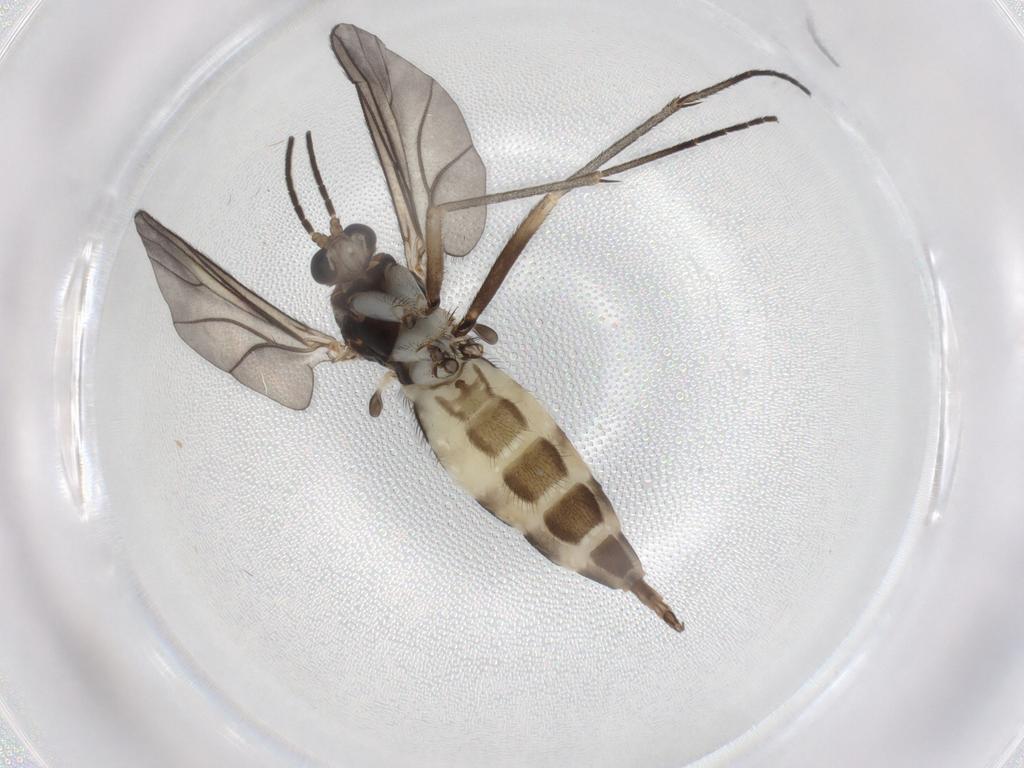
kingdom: Animalia
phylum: Arthropoda
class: Insecta
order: Diptera
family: Sciaridae
